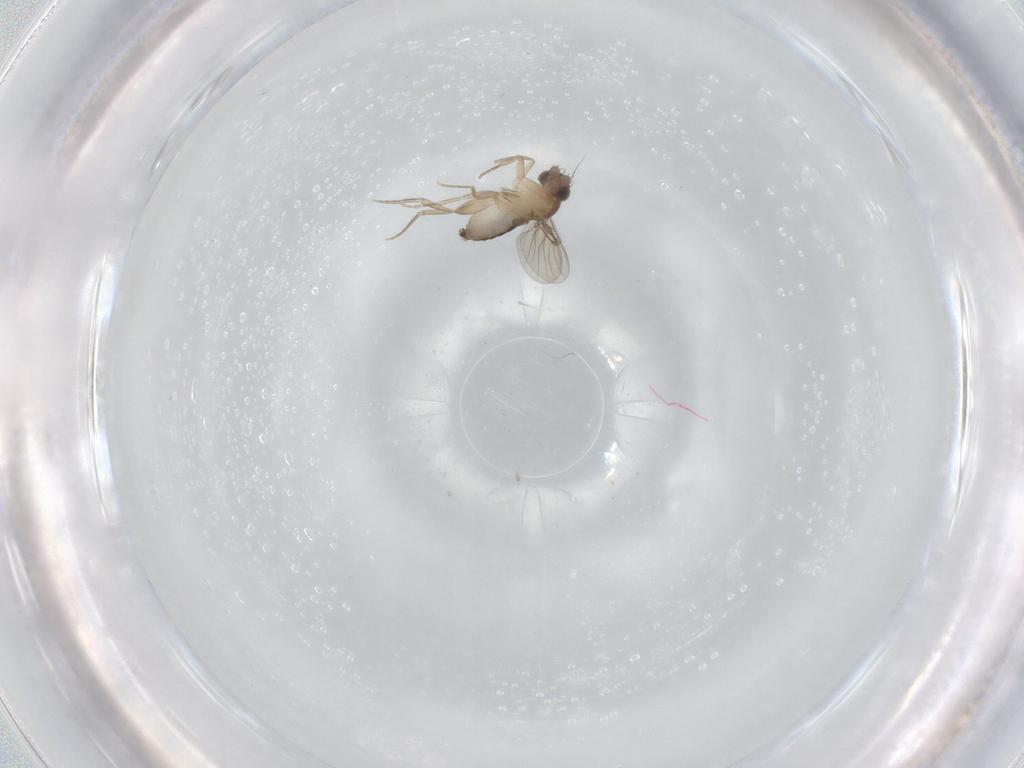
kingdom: Animalia
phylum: Arthropoda
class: Insecta
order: Diptera
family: Phoridae
